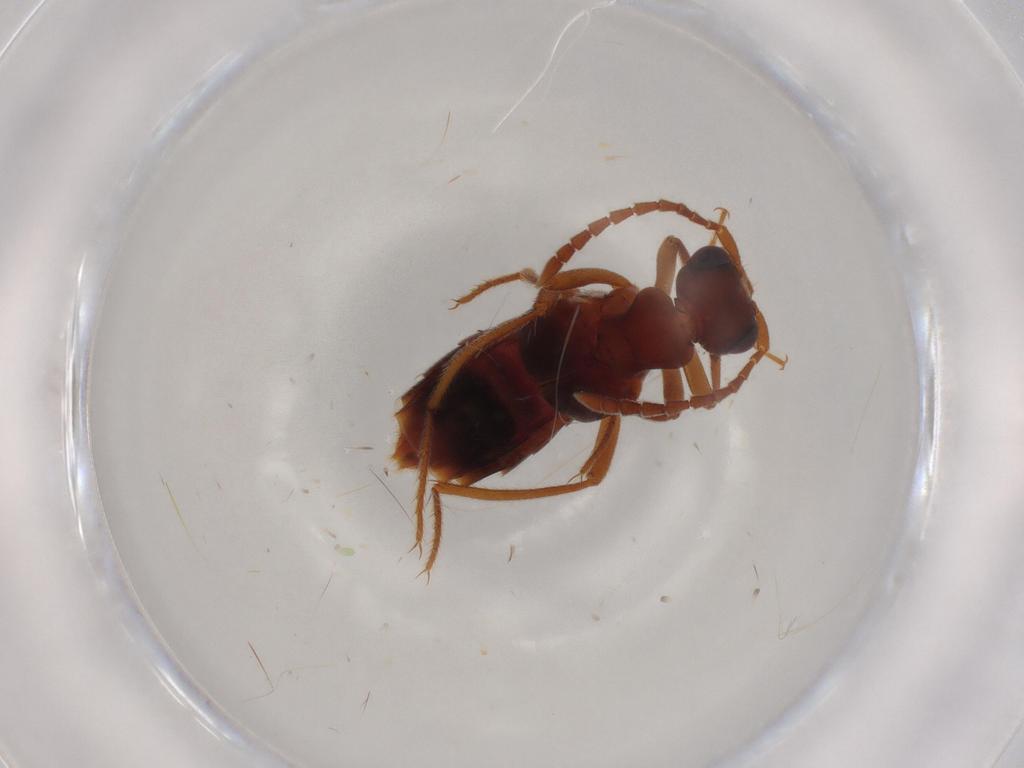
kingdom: Animalia
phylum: Arthropoda
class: Insecta
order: Coleoptera
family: Staphylinidae
